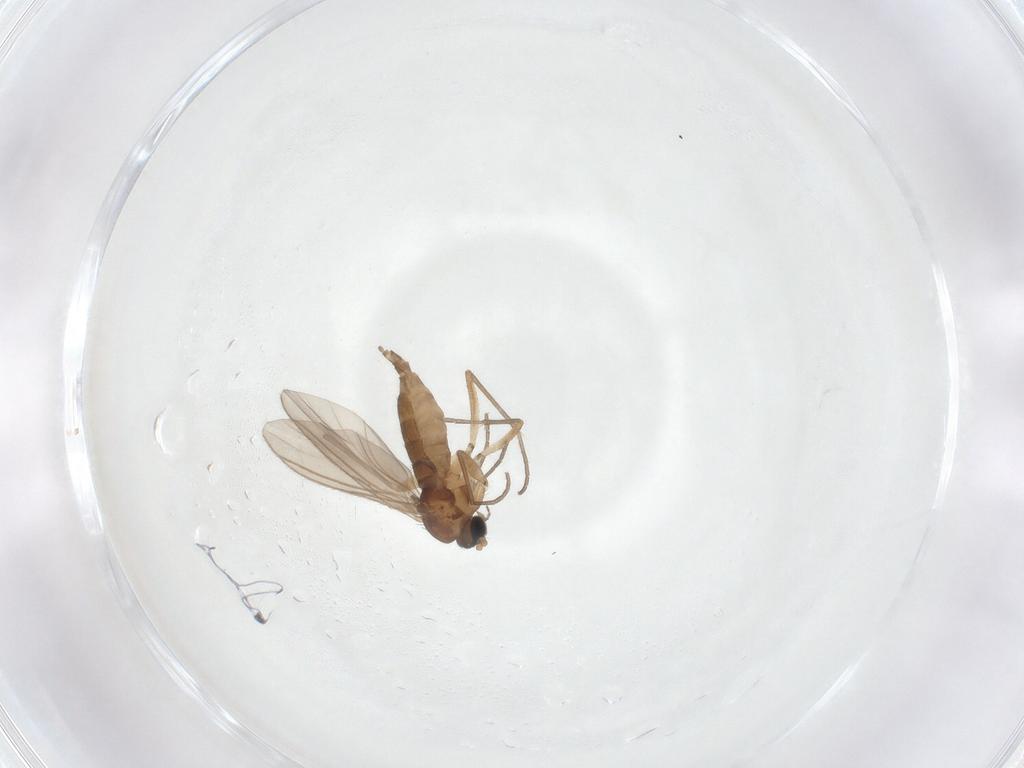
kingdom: Animalia
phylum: Arthropoda
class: Insecta
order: Diptera
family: Sciaridae
